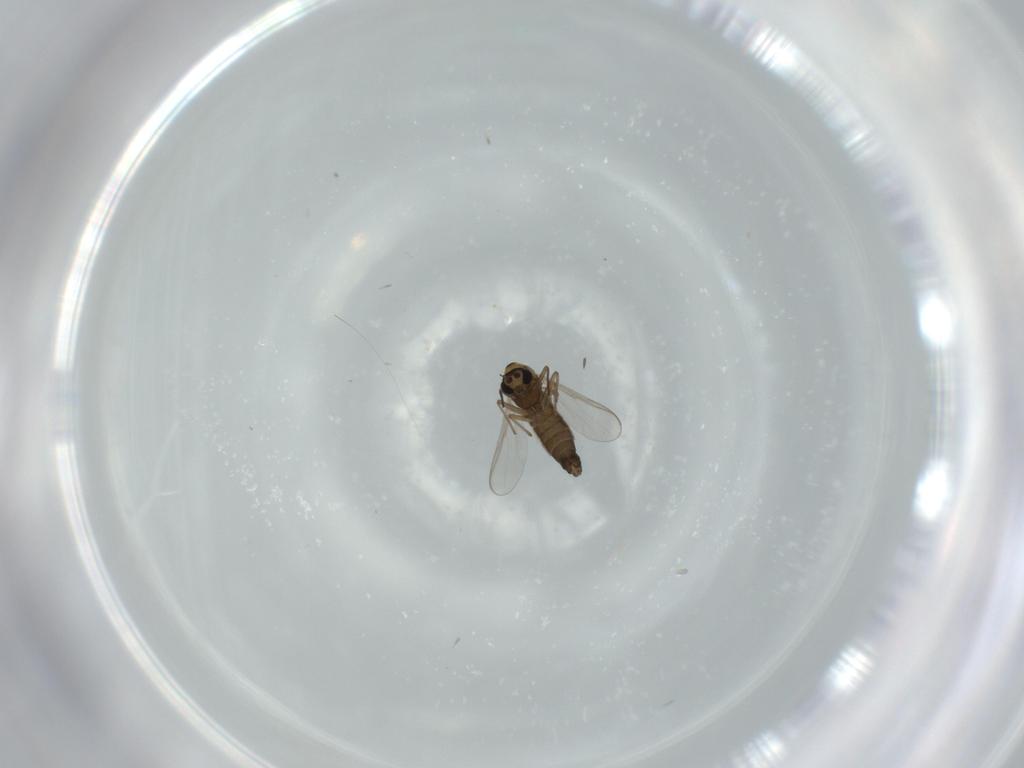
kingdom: Animalia
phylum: Arthropoda
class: Insecta
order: Diptera
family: Chironomidae
